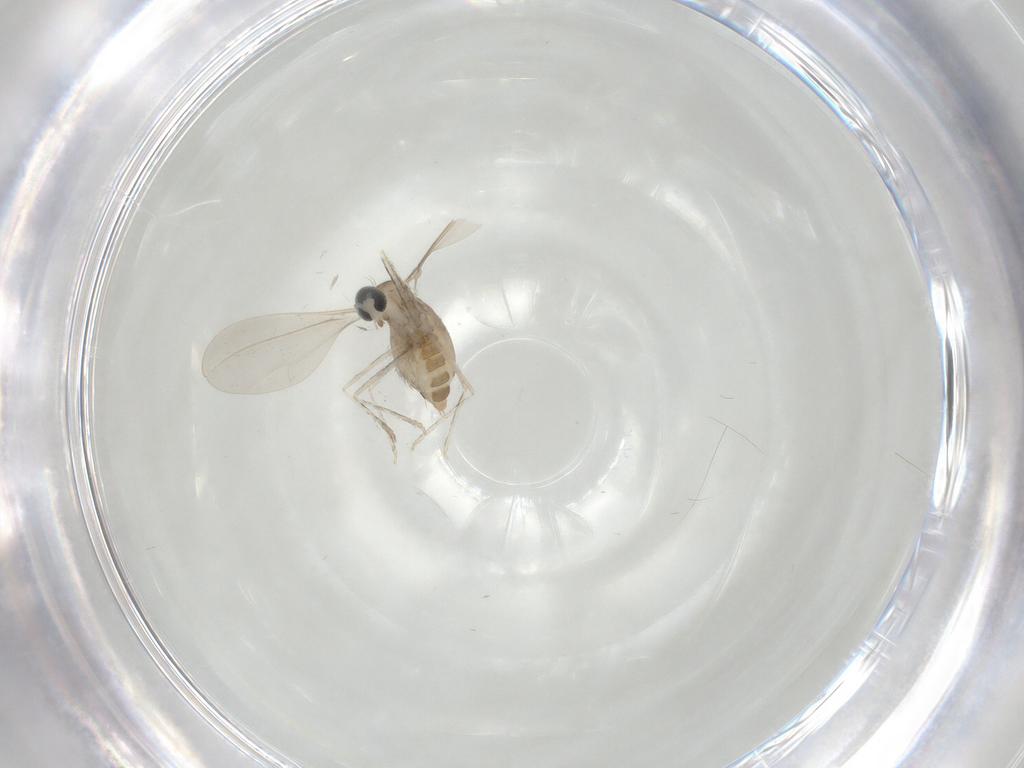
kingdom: Animalia
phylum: Arthropoda
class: Insecta
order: Diptera
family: Cecidomyiidae
